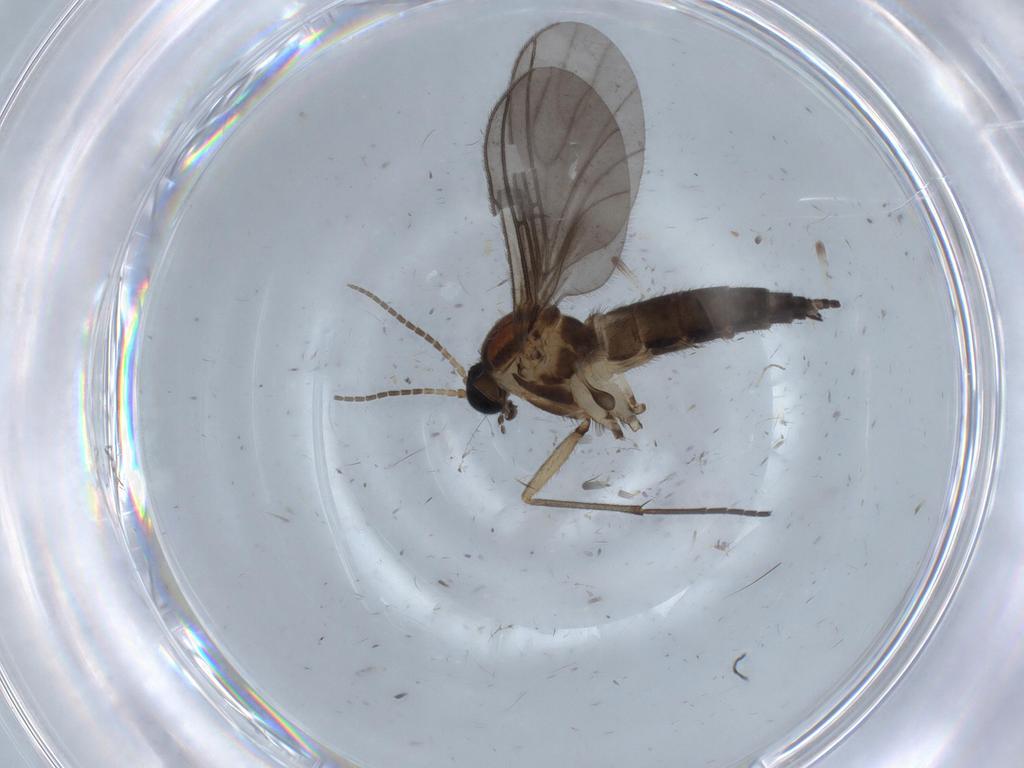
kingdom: Animalia
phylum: Arthropoda
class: Insecta
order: Diptera
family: Sciaridae
